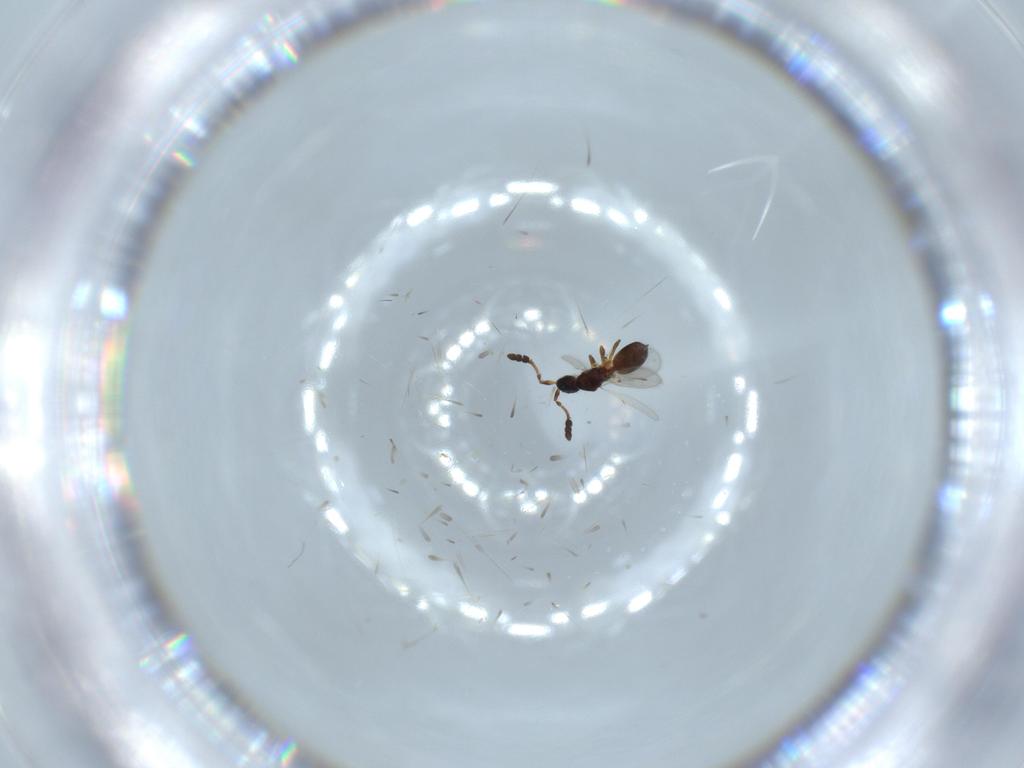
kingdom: Animalia
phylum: Arthropoda
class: Insecta
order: Hymenoptera
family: Diapriidae
